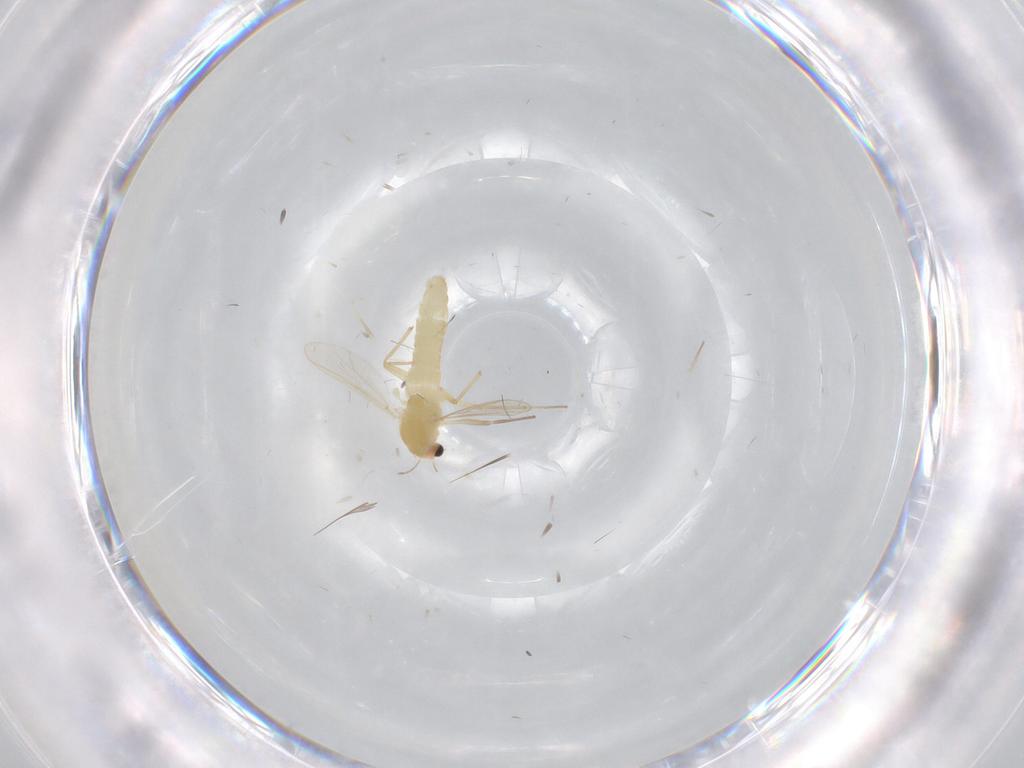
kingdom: Animalia
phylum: Arthropoda
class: Insecta
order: Diptera
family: Chironomidae
